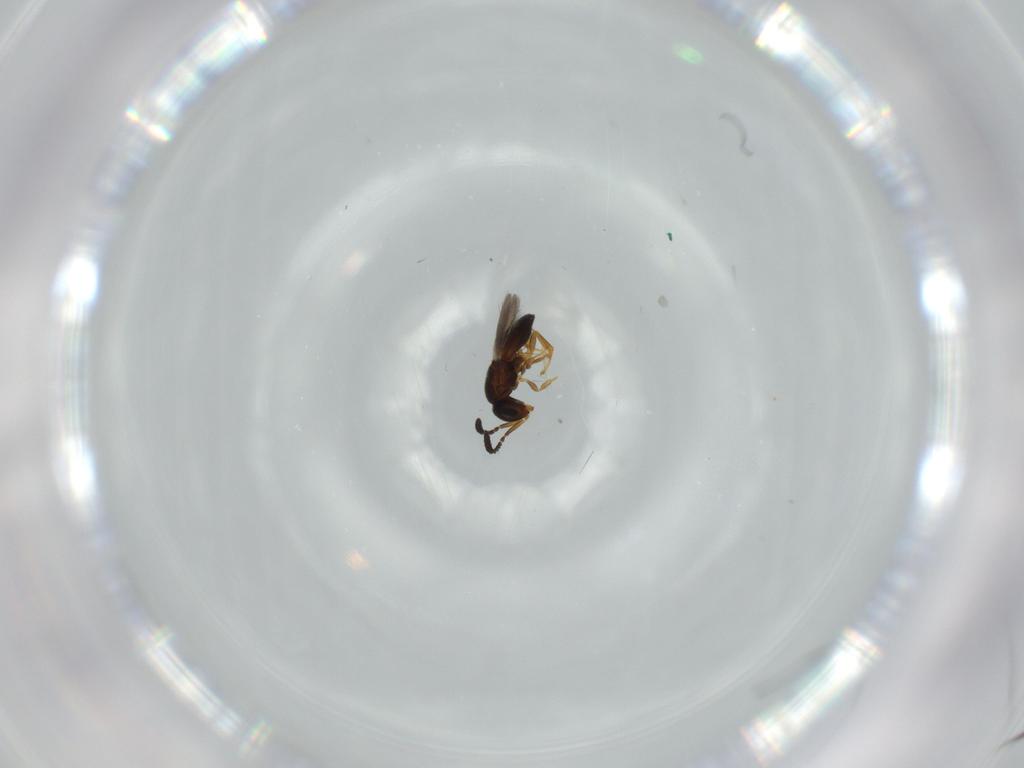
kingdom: Animalia
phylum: Arthropoda
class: Insecta
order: Hymenoptera
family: Scelionidae
